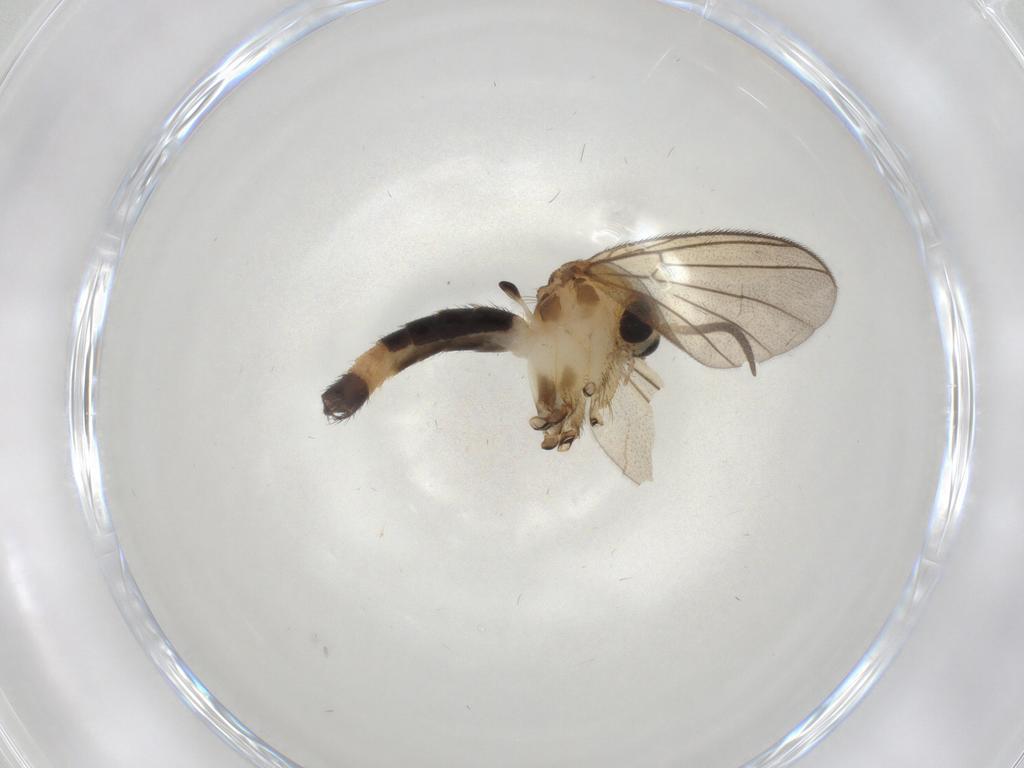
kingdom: Animalia
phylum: Arthropoda
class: Insecta
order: Diptera
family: Mycetophilidae
